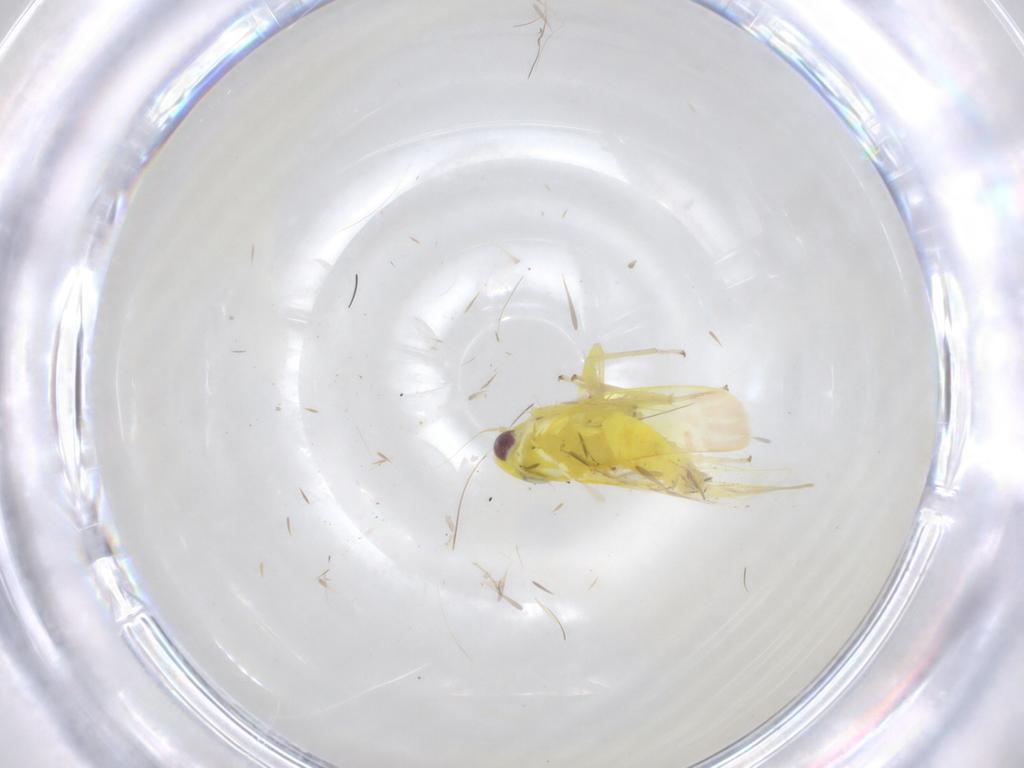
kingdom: Animalia
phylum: Arthropoda
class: Insecta
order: Hemiptera
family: Cicadellidae
